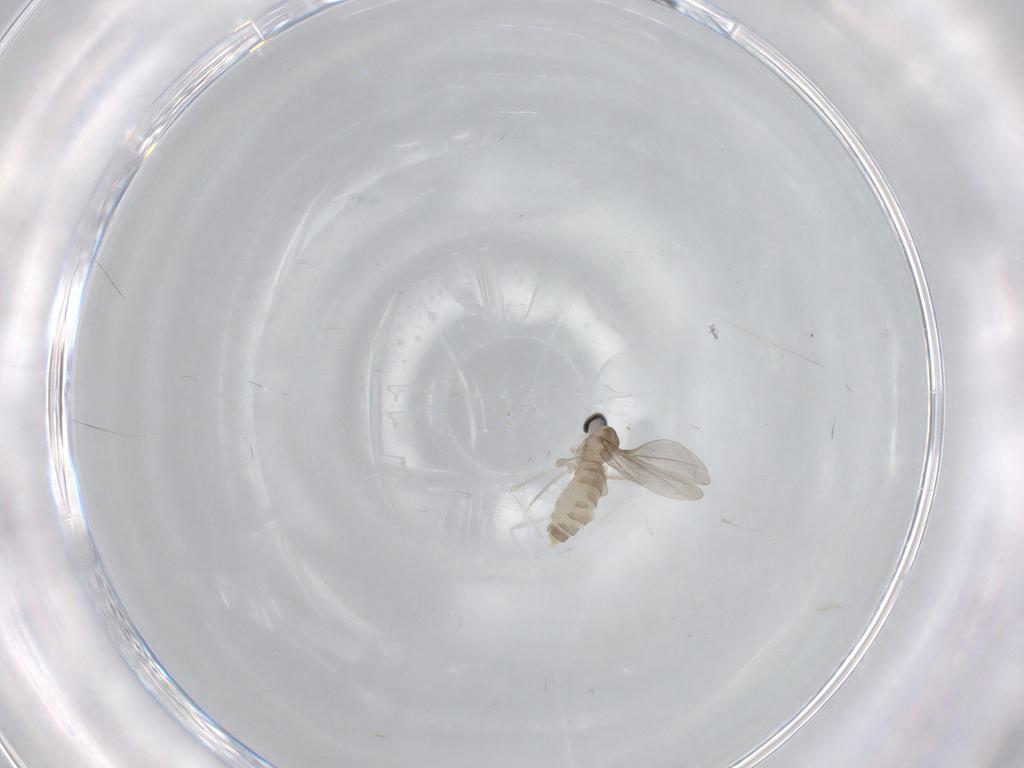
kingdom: Animalia
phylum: Arthropoda
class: Insecta
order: Diptera
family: Cecidomyiidae
